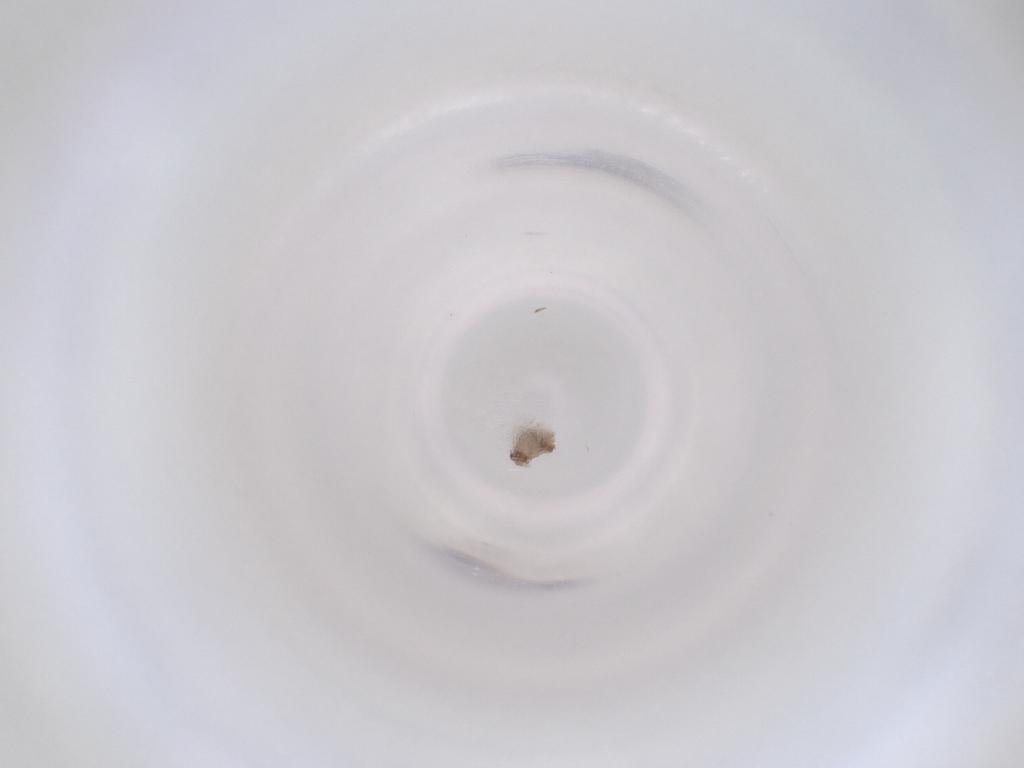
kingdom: Animalia
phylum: Arthropoda
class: Insecta
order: Diptera
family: Cecidomyiidae
